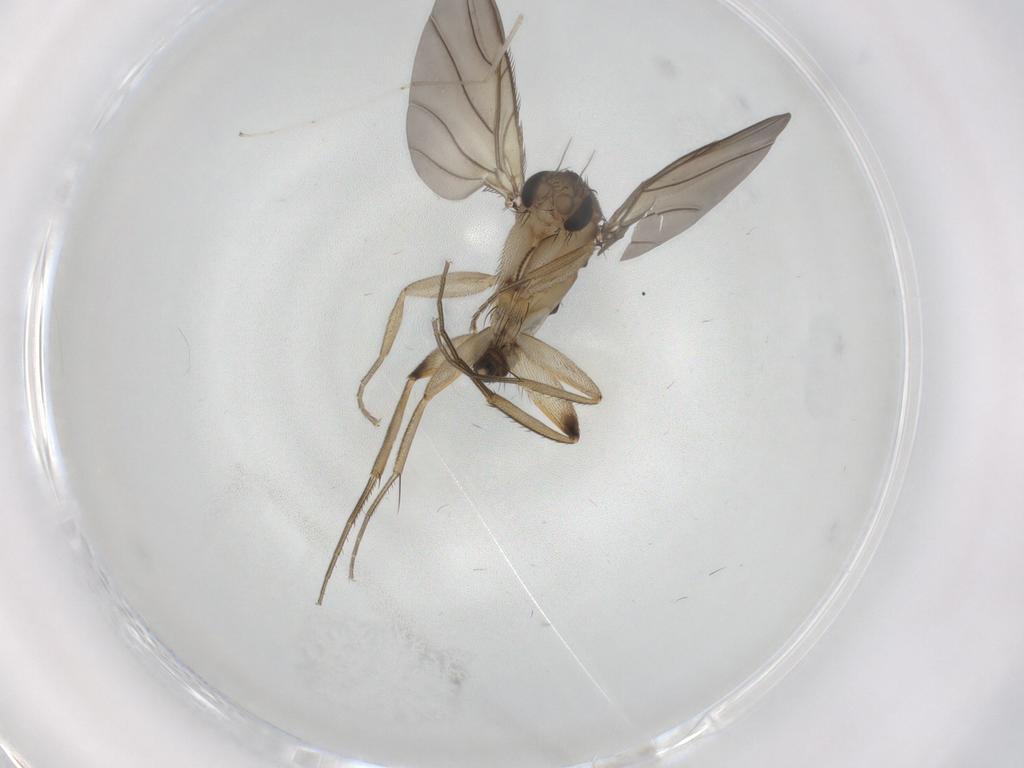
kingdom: Animalia
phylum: Arthropoda
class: Insecta
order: Diptera
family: Phoridae
